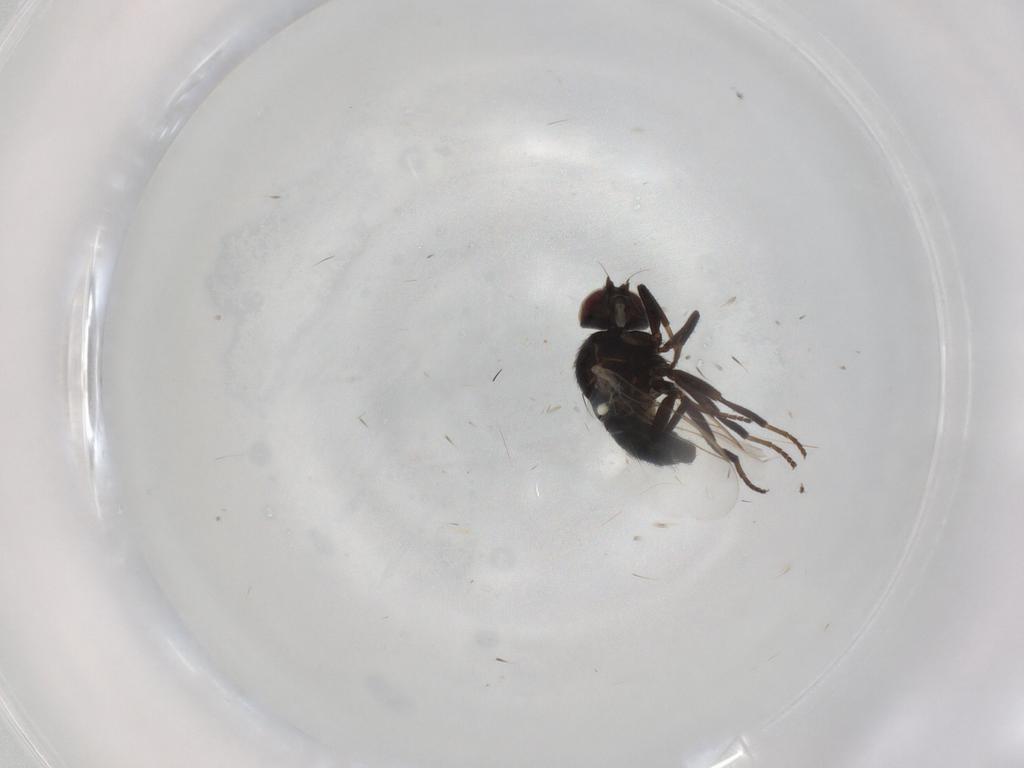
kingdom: Animalia
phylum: Arthropoda
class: Insecta
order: Diptera
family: Agromyzidae
